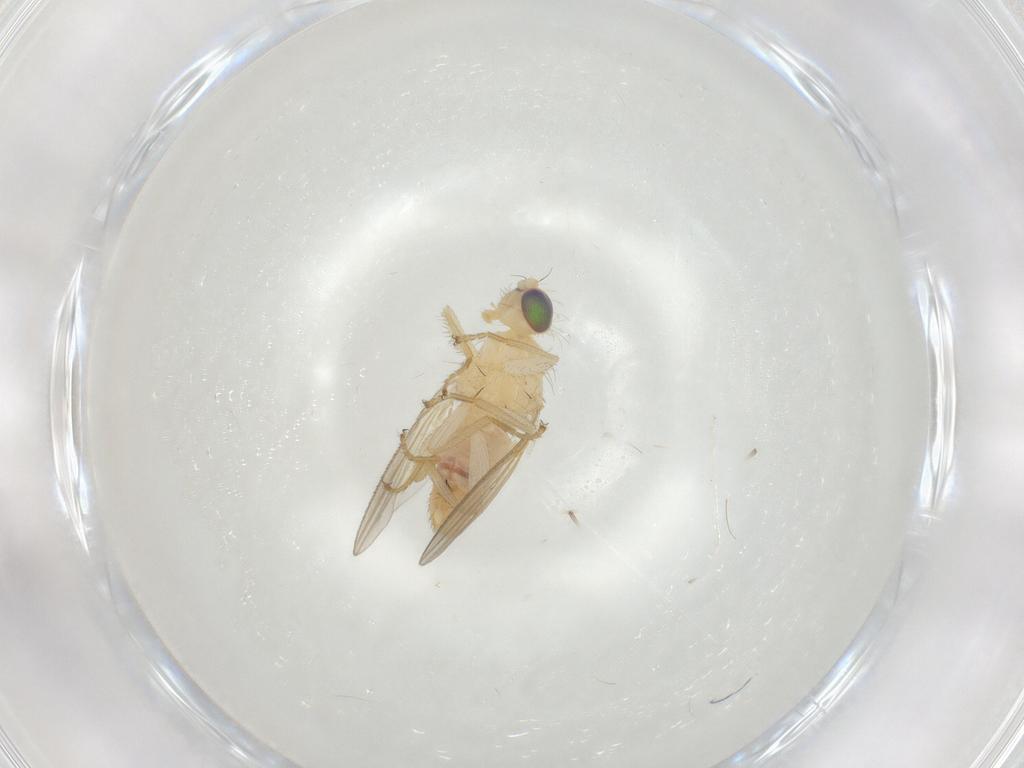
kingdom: Animalia
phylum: Arthropoda
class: Insecta
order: Diptera
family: Chyromyidae
